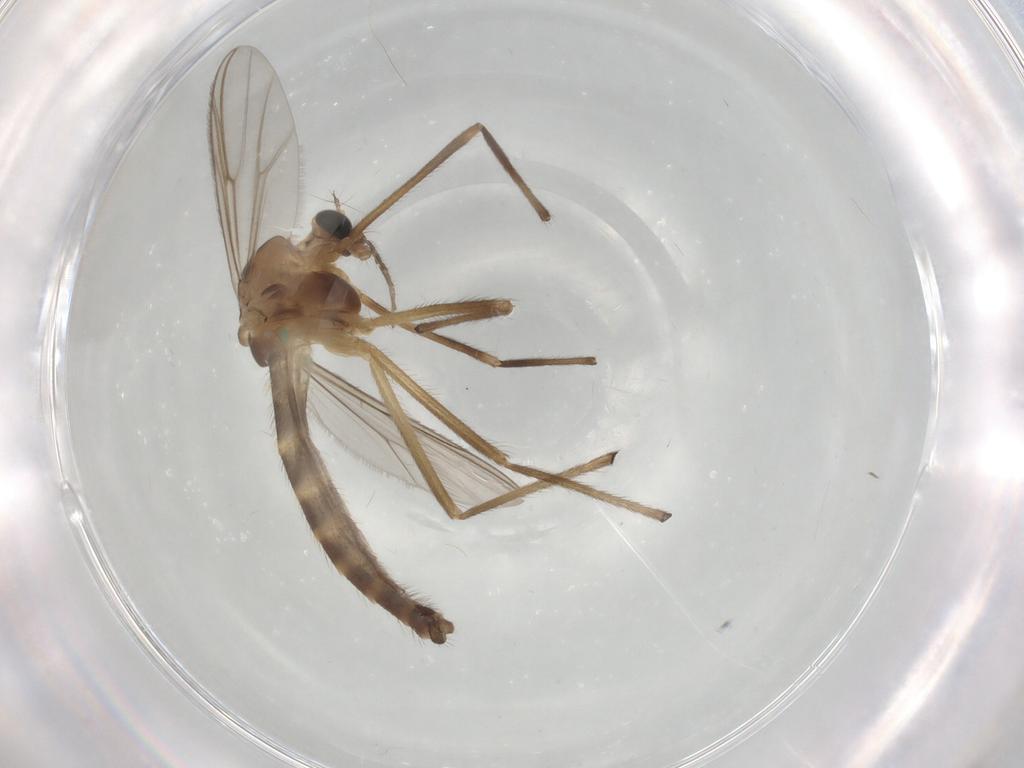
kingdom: Animalia
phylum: Arthropoda
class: Insecta
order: Diptera
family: Chironomidae
